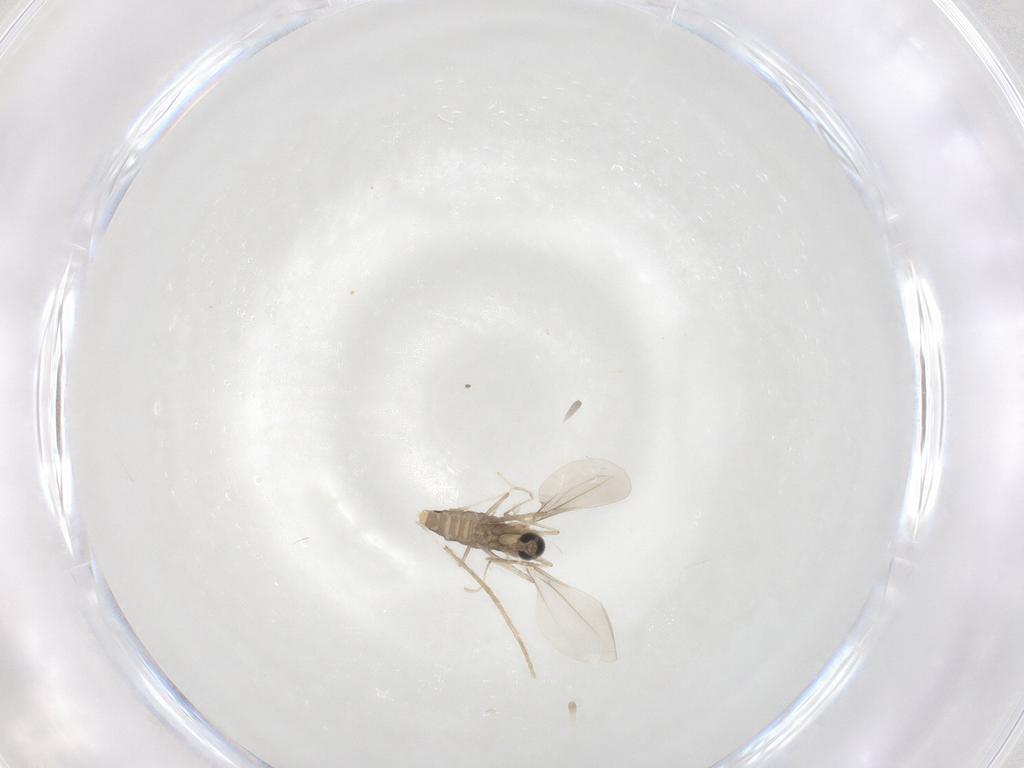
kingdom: Animalia
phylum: Arthropoda
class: Insecta
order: Diptera
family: Cecidomyiidae
